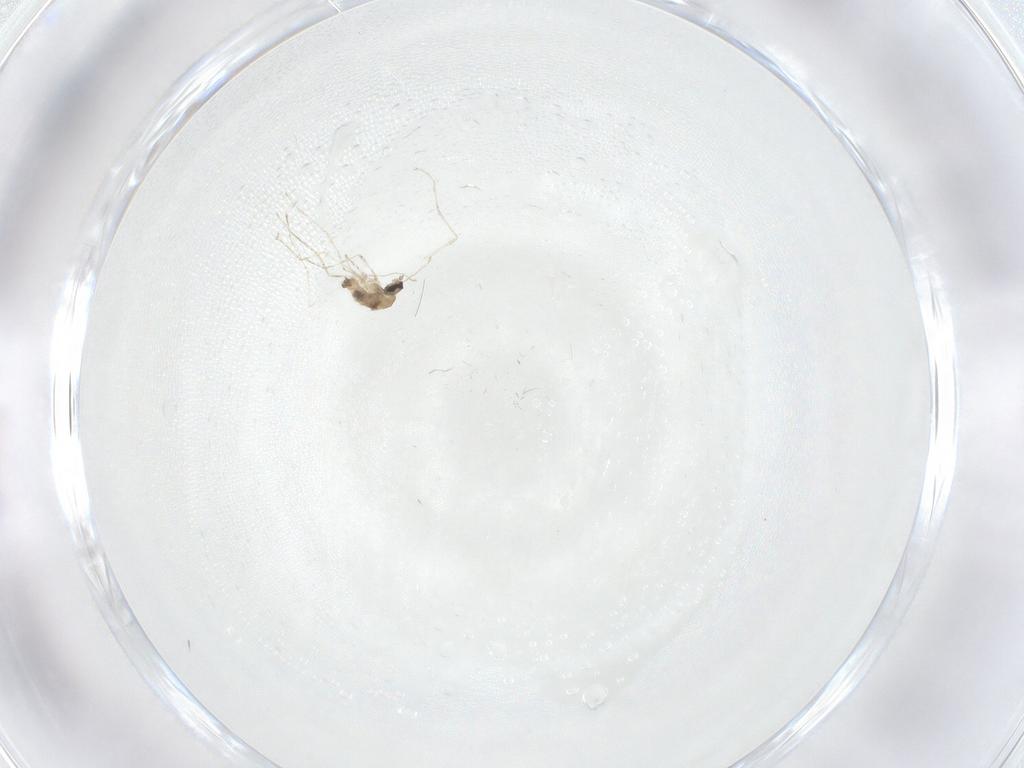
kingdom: Animalia
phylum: Arthropoda
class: Insecta
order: Diptera
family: Cecidomyiidae
